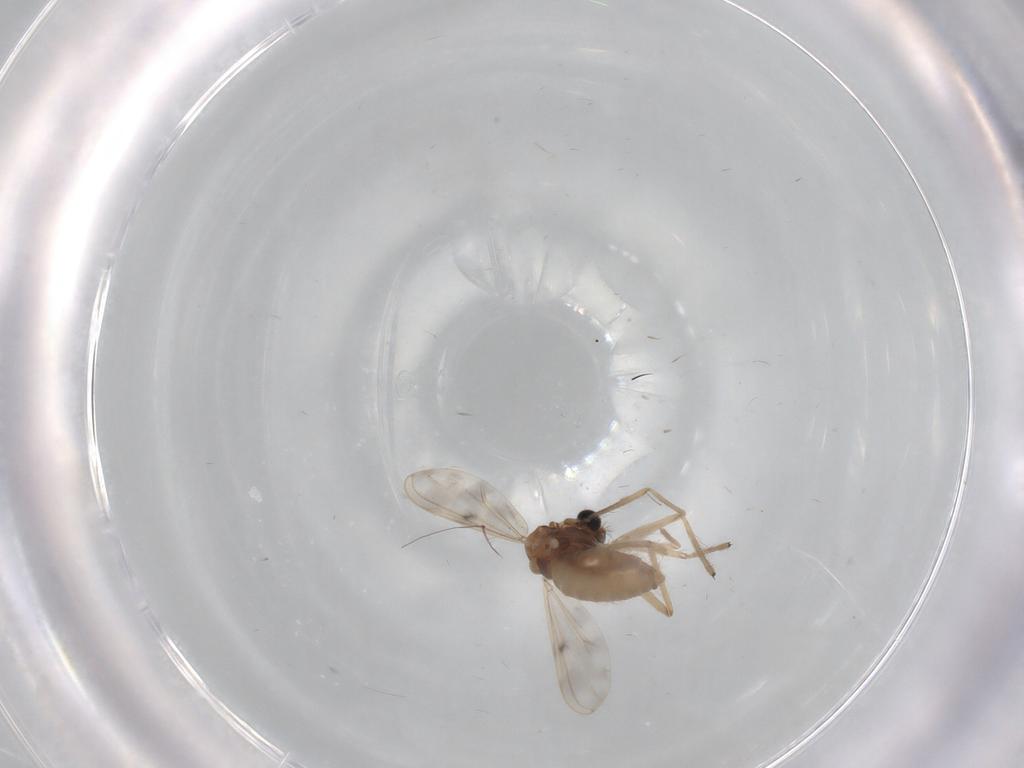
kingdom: Animalia
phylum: Arthropoda
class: Insecta
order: Diptera
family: Chironomidae
